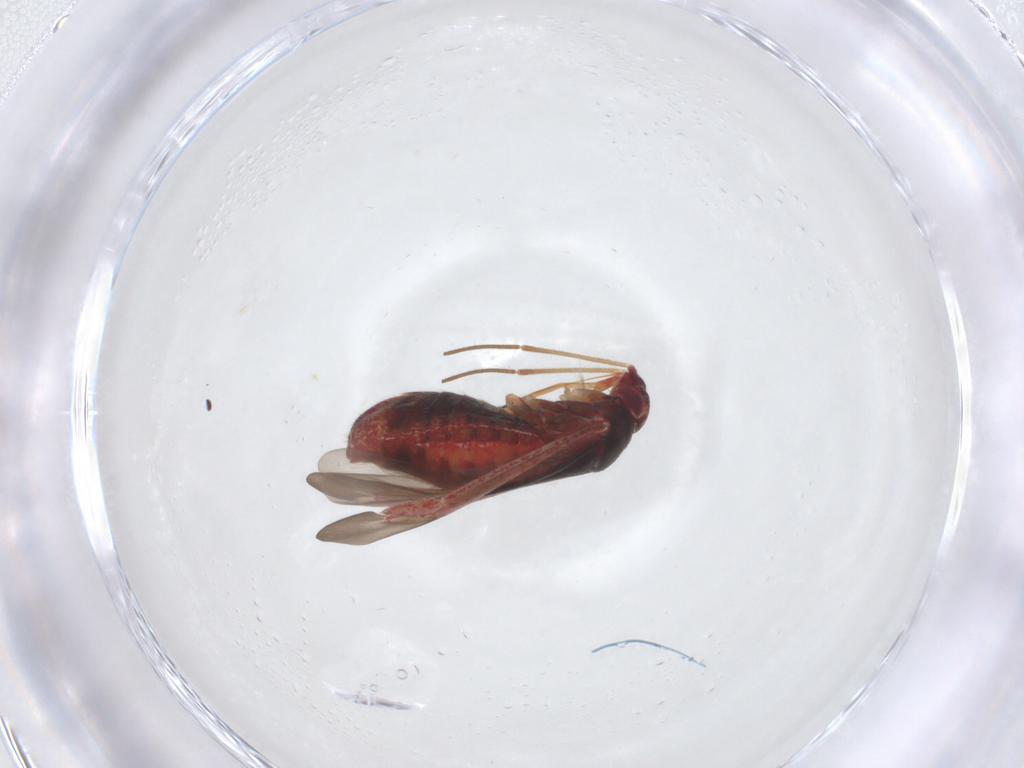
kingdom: Animalia
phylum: Arthropoda
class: Insecta
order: Hemiptera
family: Miridae
